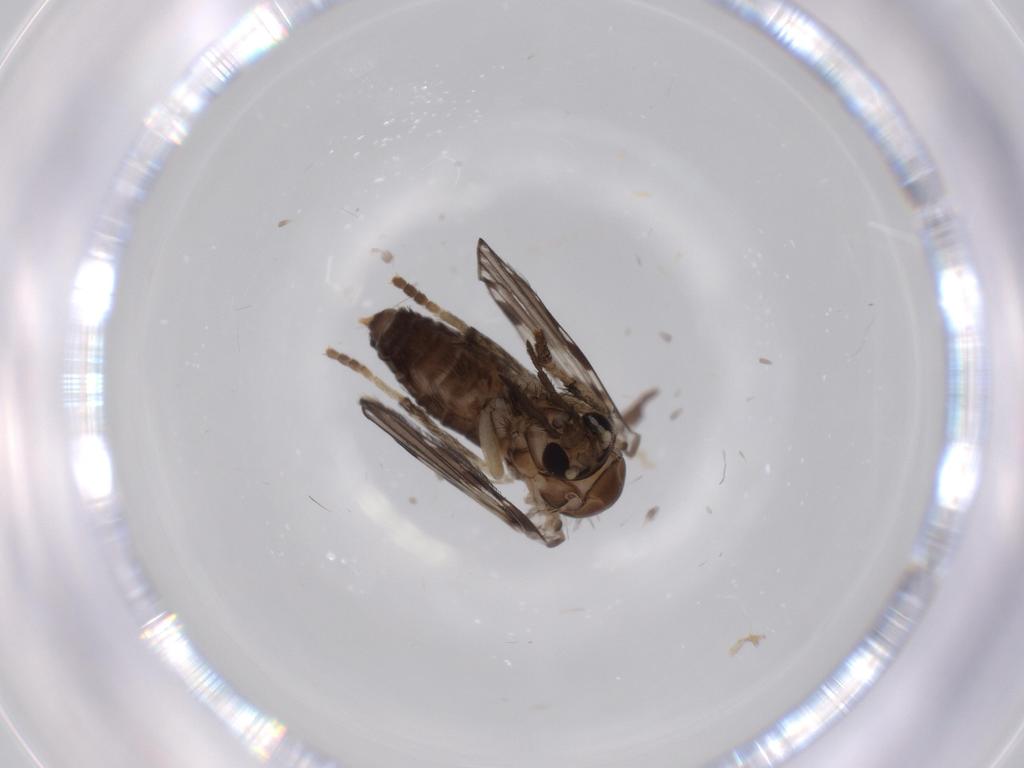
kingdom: Animalia
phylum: Arthropoda
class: Insecta
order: Diptera
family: Psychodidae
